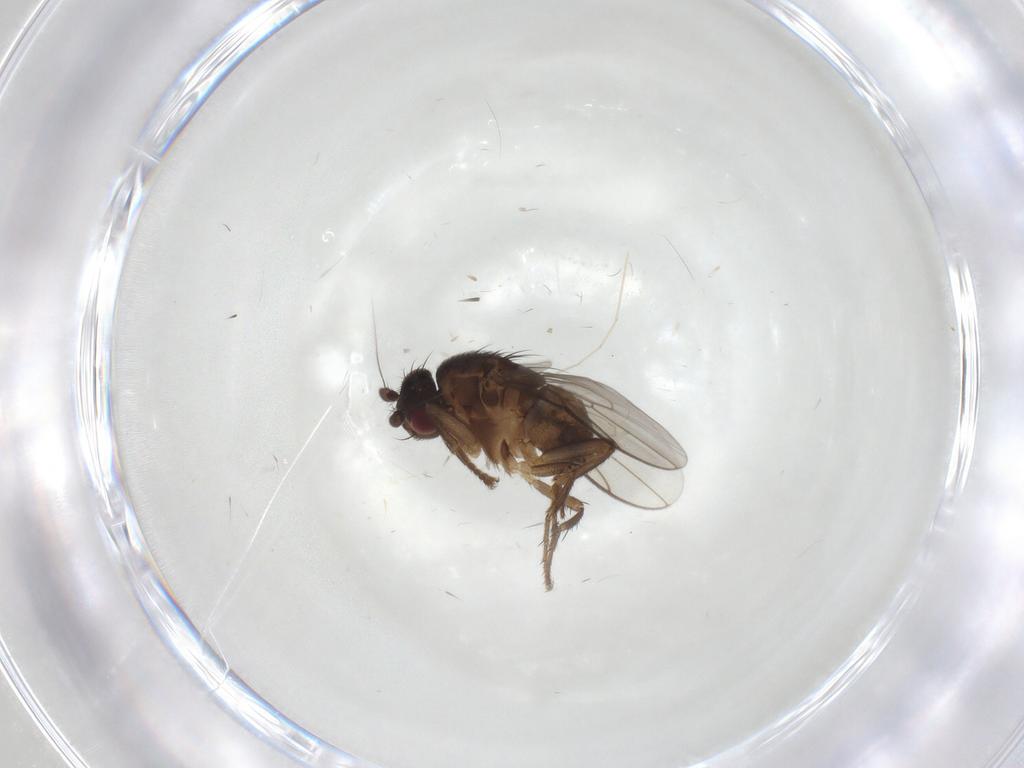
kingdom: Animalia
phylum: Arthropoda
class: Insecta
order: Diptera
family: Sphaeroceridae
